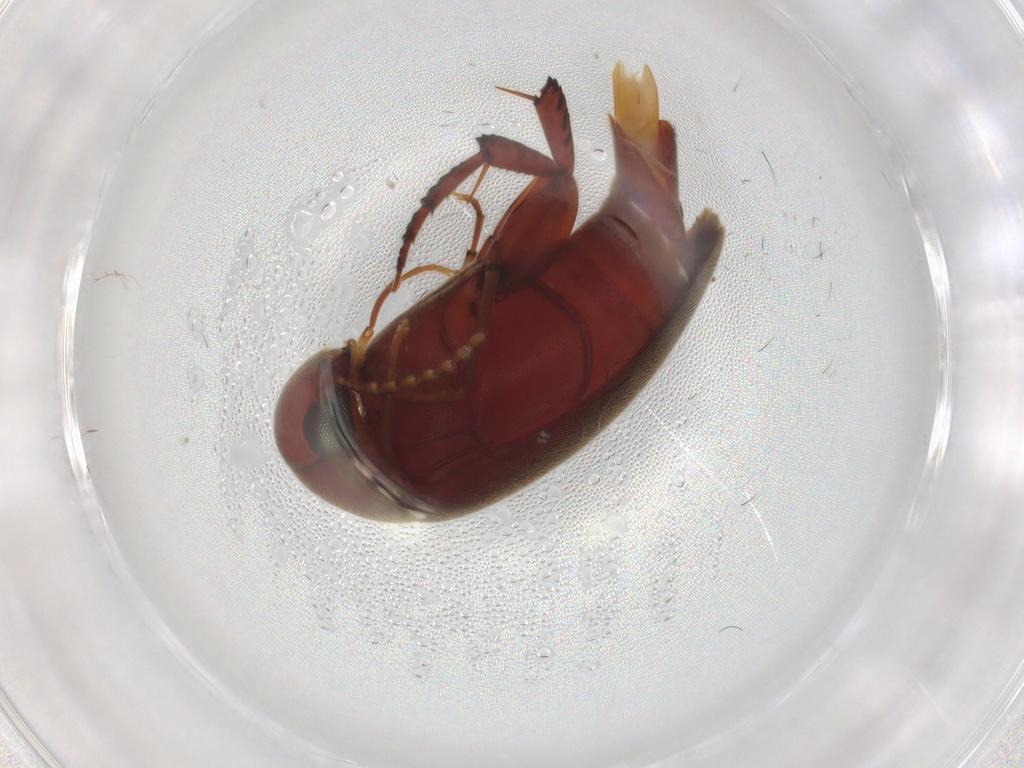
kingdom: Animalia
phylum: Arthropoda
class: Insecta
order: Coleoptera
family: Mordellidae
